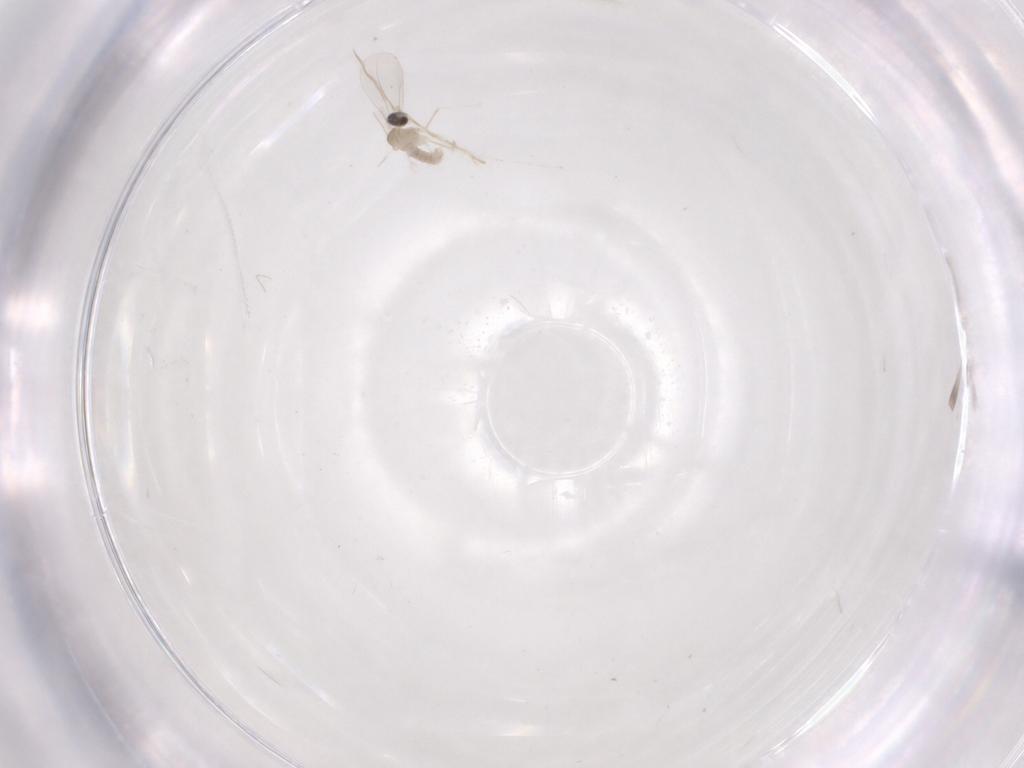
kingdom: Animalia
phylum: Arthropoda
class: Insecta
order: Diptera
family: Cecidomyiidae
